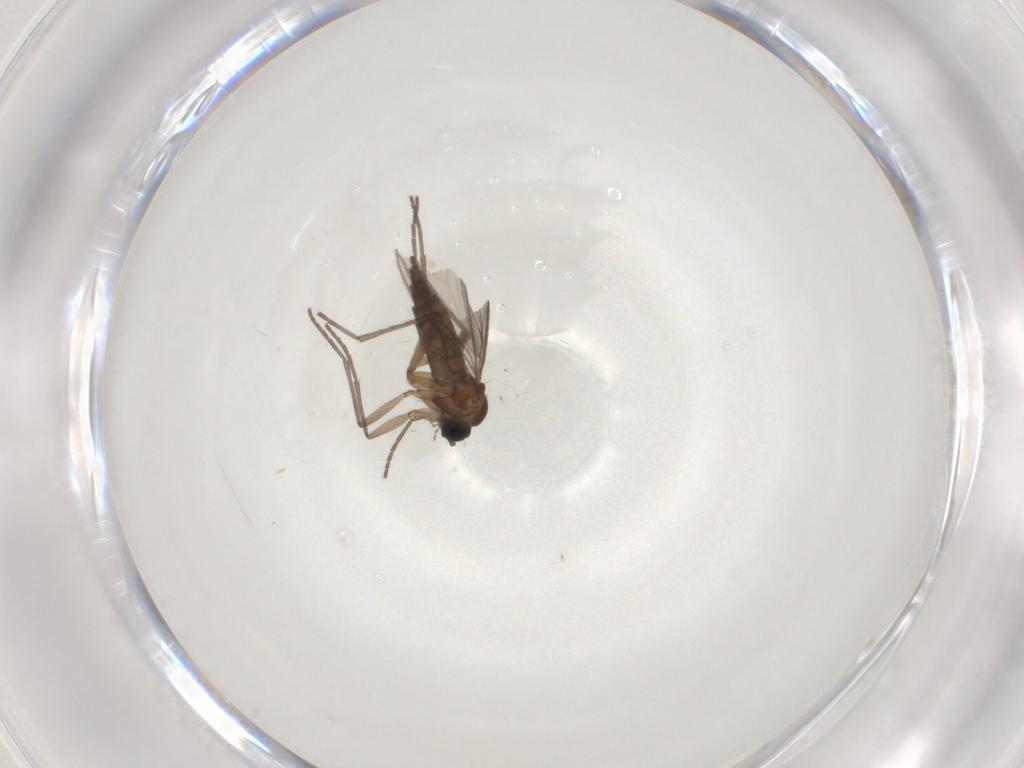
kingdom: Animalia
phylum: Arthropoda
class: Insecta
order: Diptera
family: Sciaridae
